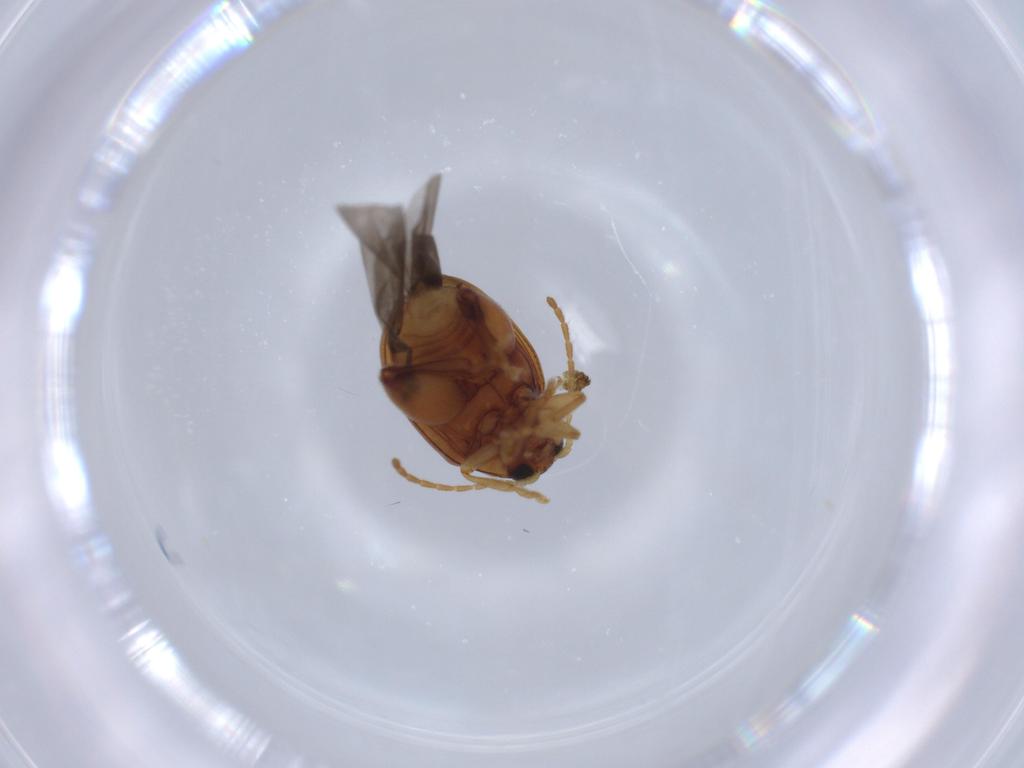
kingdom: Animalia
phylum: Arthropoda
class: Insecta
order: Coleoptera
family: Chrysomelidae
